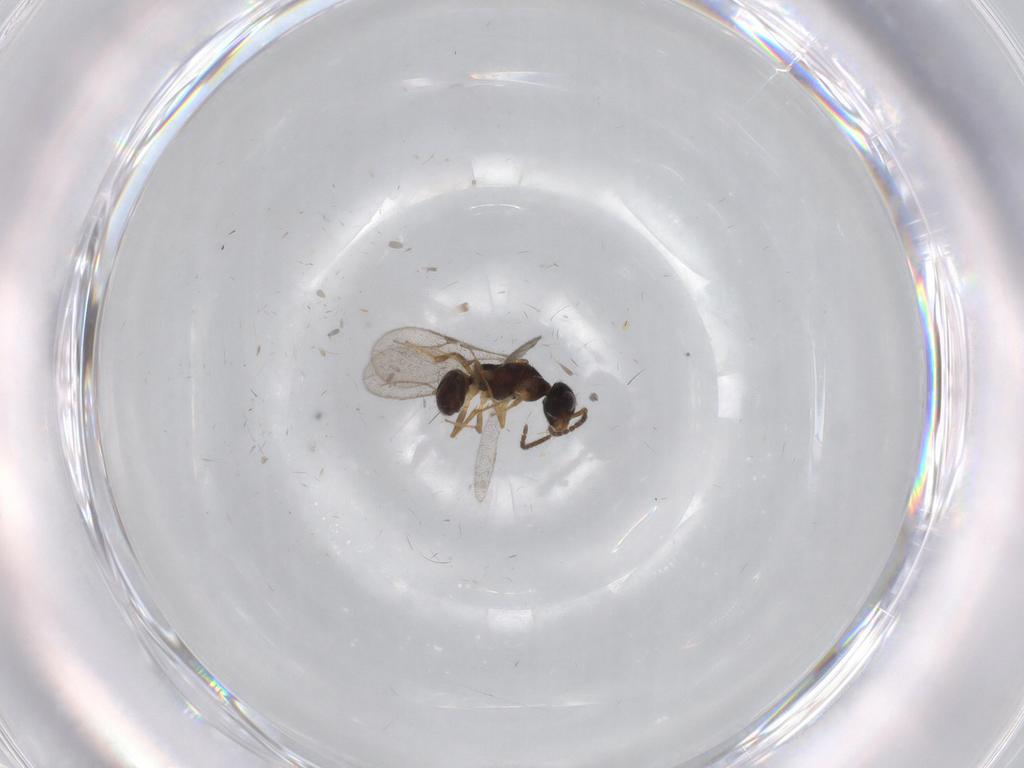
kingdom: Animalia
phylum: Arthropoda
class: Insecta
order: Hymenoptera
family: Bethylidae
